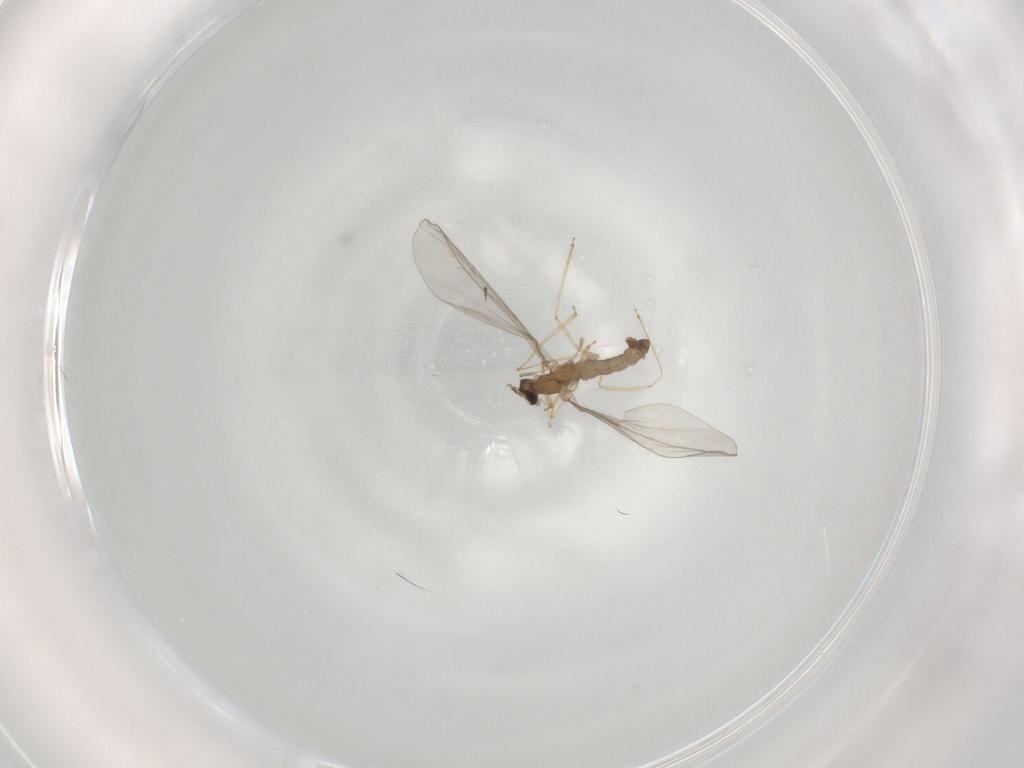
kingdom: Animalia
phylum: Arthropoda
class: Insecta
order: Diptera
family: Cecidomyiidae
